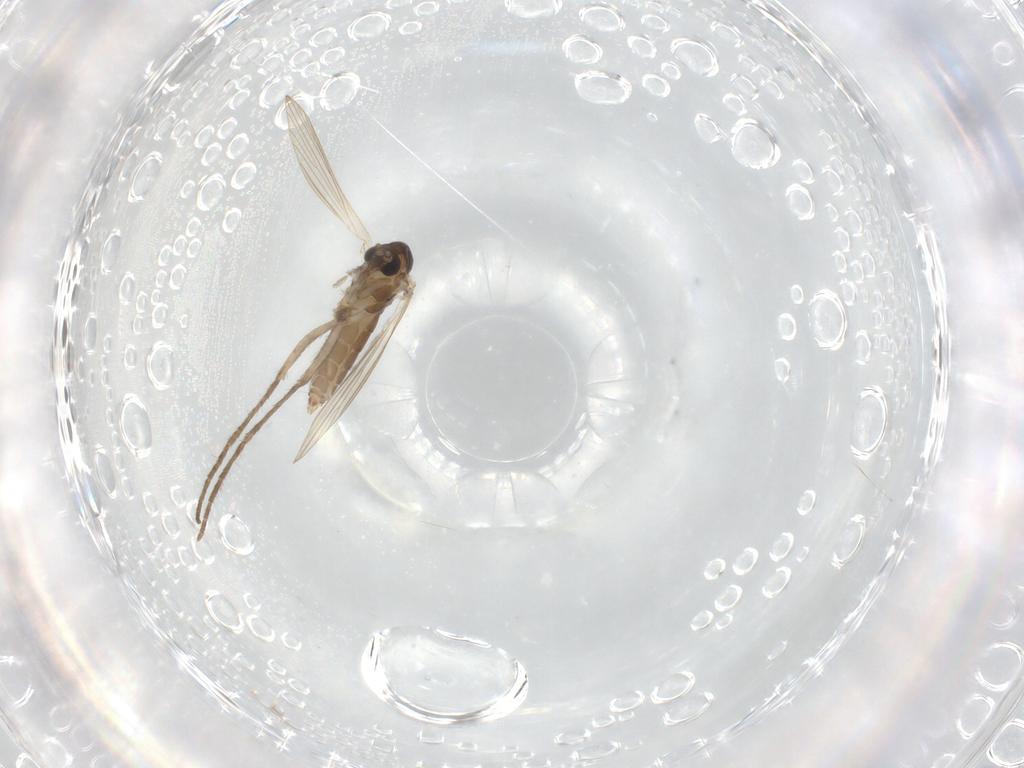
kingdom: Animalia
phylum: Arthropoda
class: Insecta
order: Diptera
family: Psychodidae
